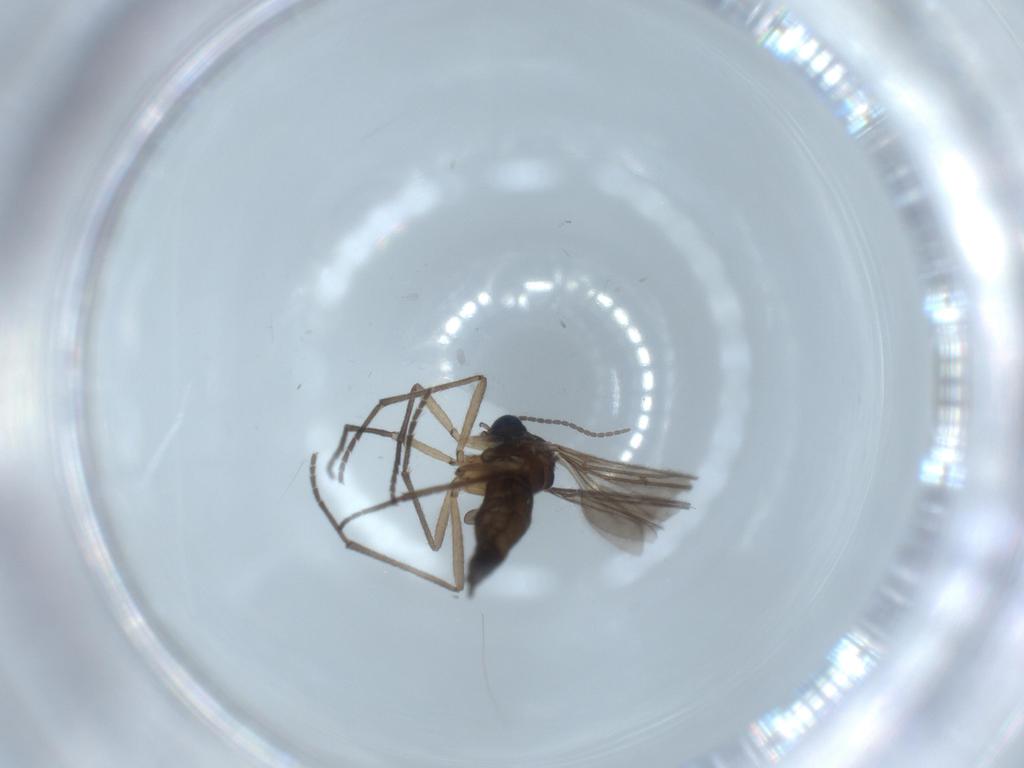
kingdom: Animalia
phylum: Arthropoda
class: Insecta
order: Diptera
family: Sciaridae
